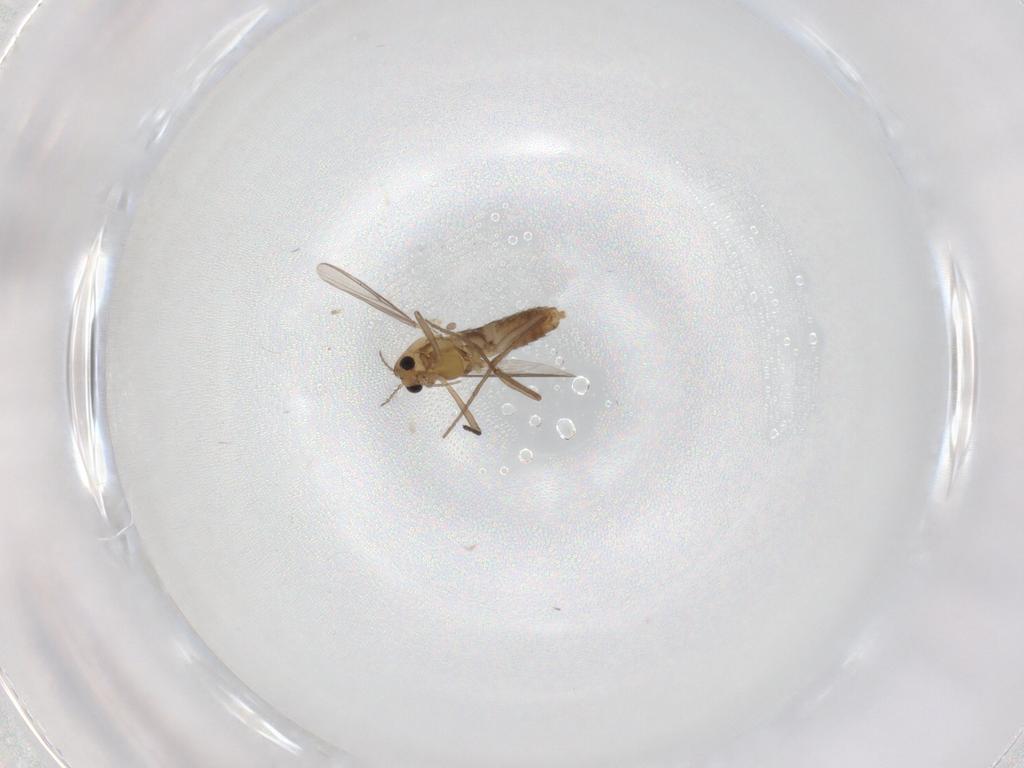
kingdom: Animalia
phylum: Arthropoda
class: Insecta
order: Diptera
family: Chironomidae
